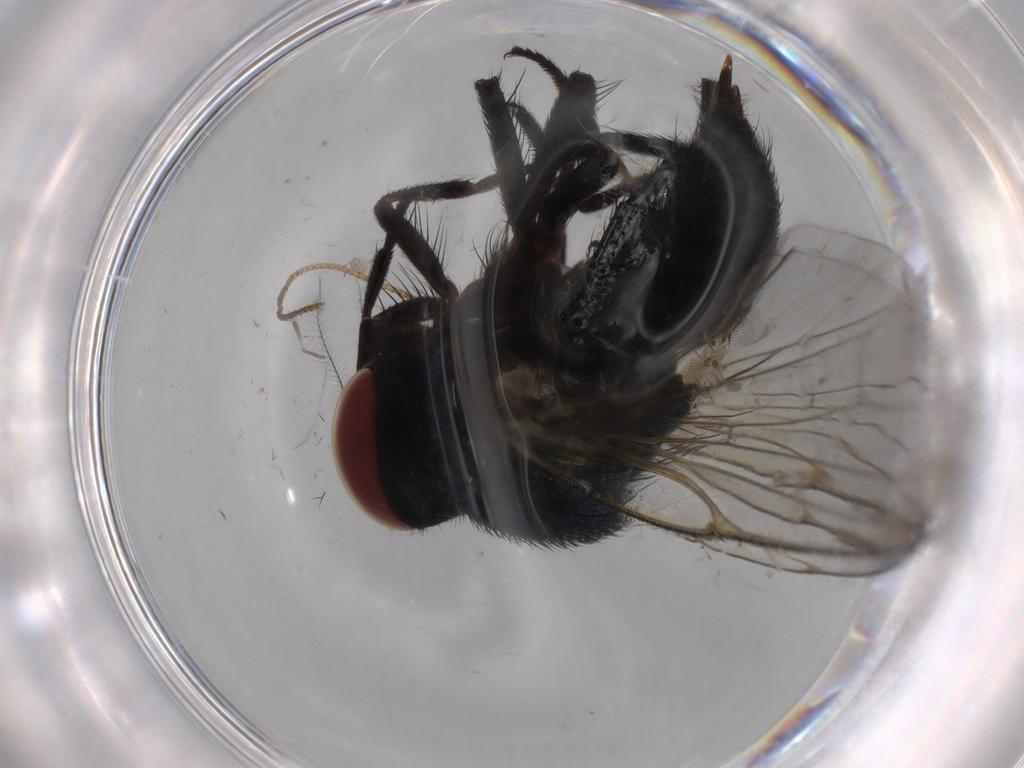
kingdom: Animalia
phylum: Arthropoda
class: Insecta
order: Diptera
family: Lonchaeidae
